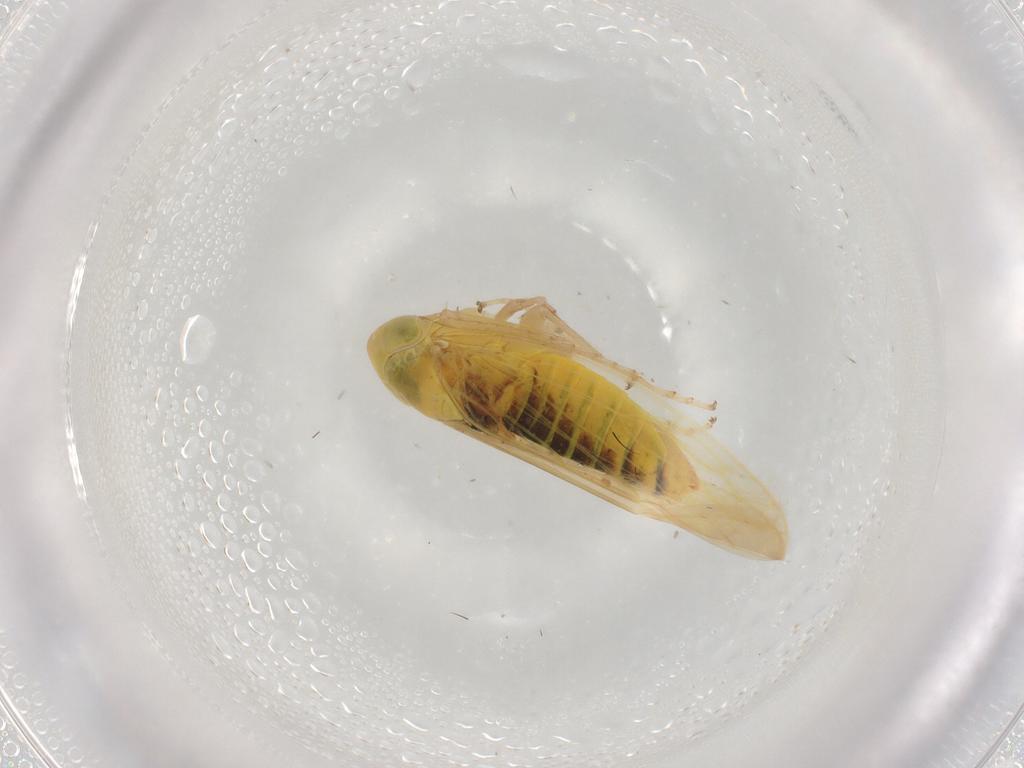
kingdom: Animalia
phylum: Arthropoda
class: Insecta
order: Hemiptera
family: Cicadellidae
